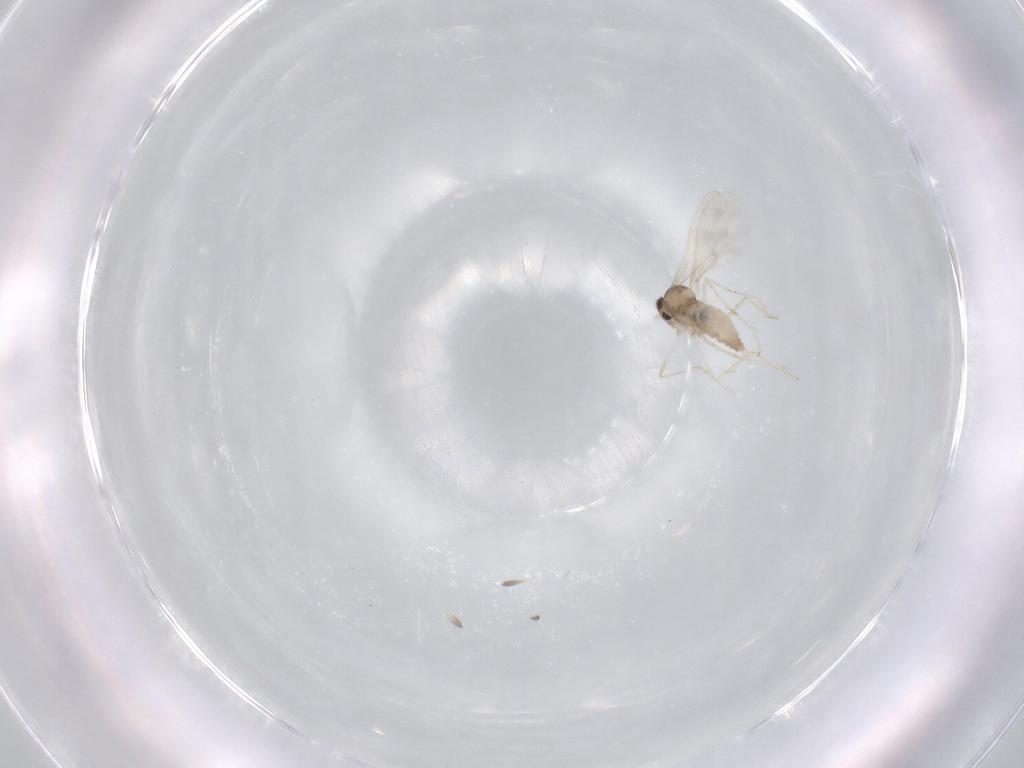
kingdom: Animalia
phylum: Arthropoda
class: Insecta
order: Diptera
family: Cecidomyiidae
